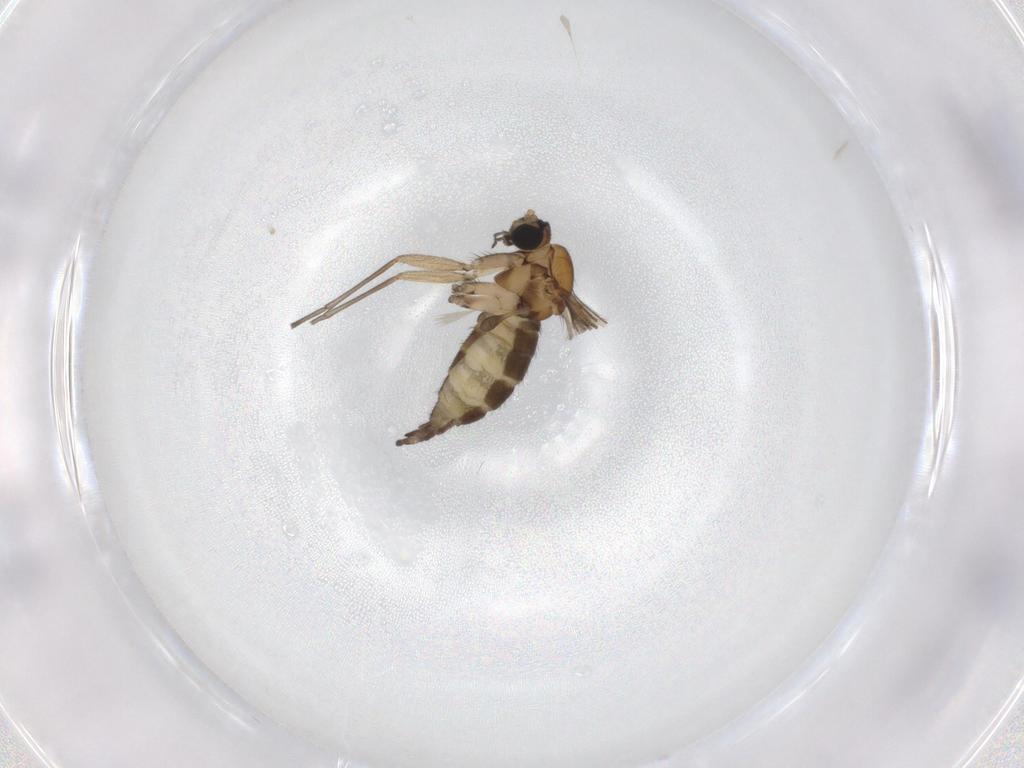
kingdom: Animalia
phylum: Arthropoda
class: Insecta
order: Diptera
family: Sciaridae
